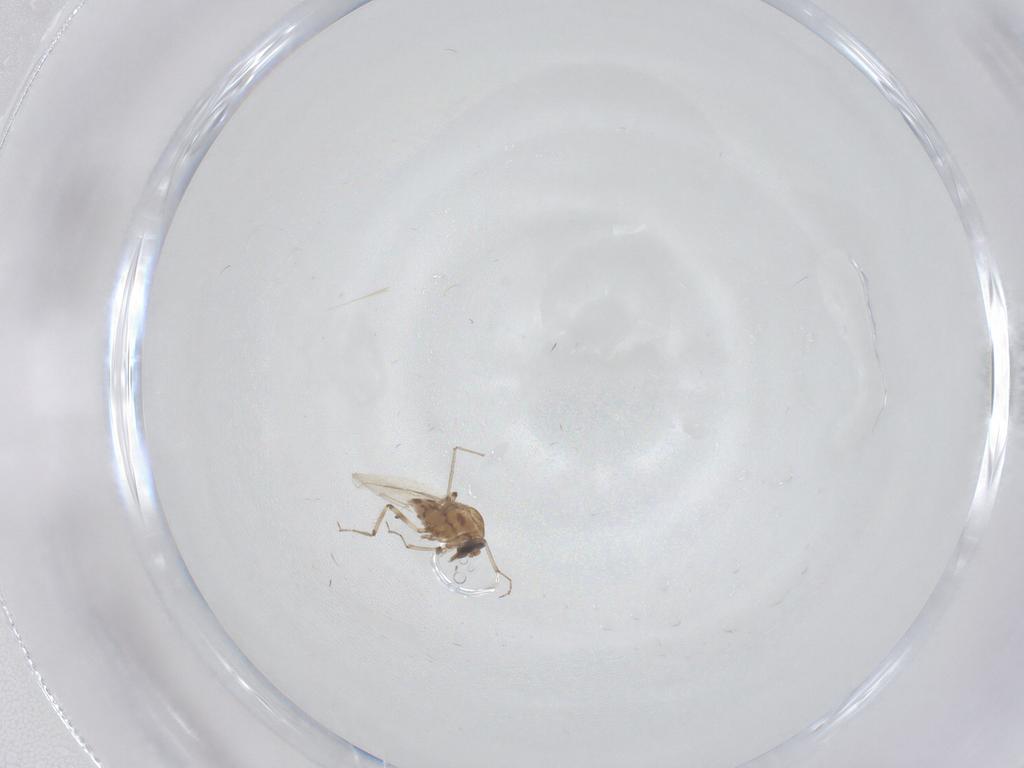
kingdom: Animalia
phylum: Arthropoda
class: Insecta
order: Diptera
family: Ceratopogonidae
